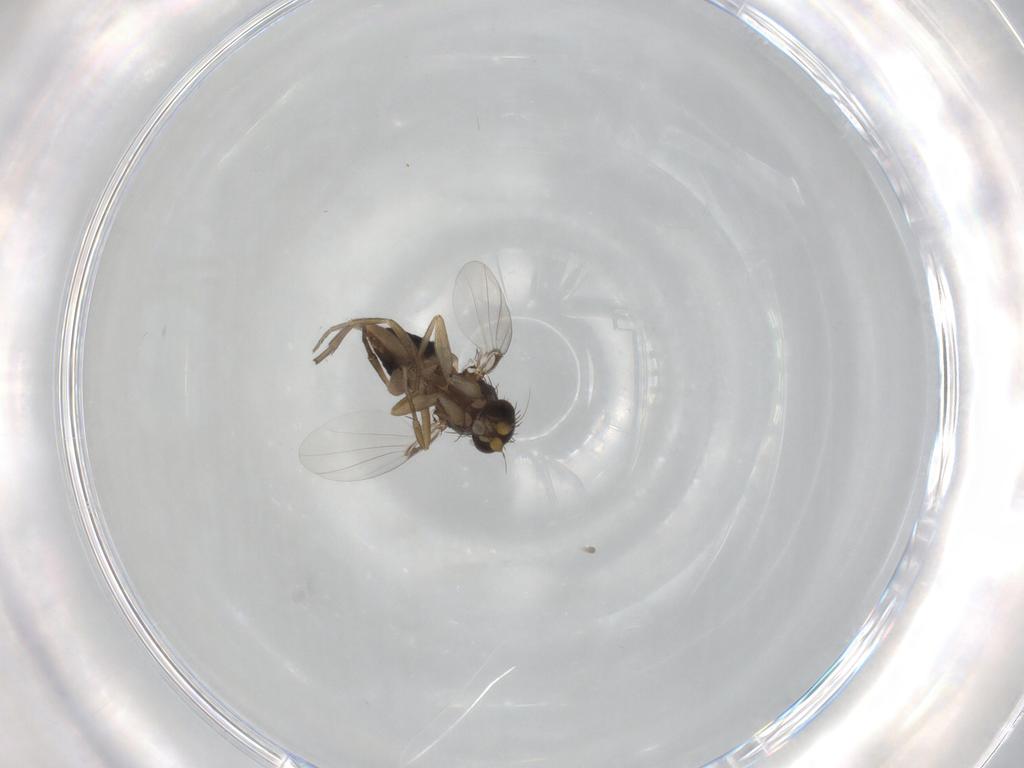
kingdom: Animalia
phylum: Arthropoda
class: Insecta
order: Diptera
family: Phoridae
